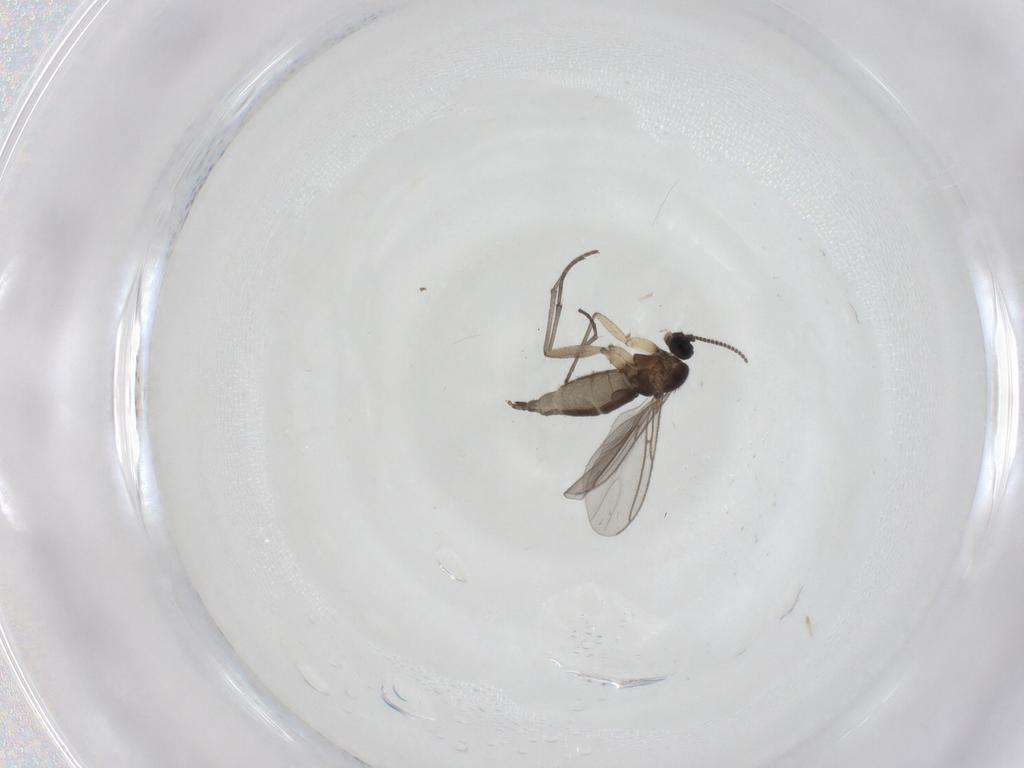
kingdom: Animalia
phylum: Arthropoda
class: Insecta
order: Diptera
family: Sciaridae
